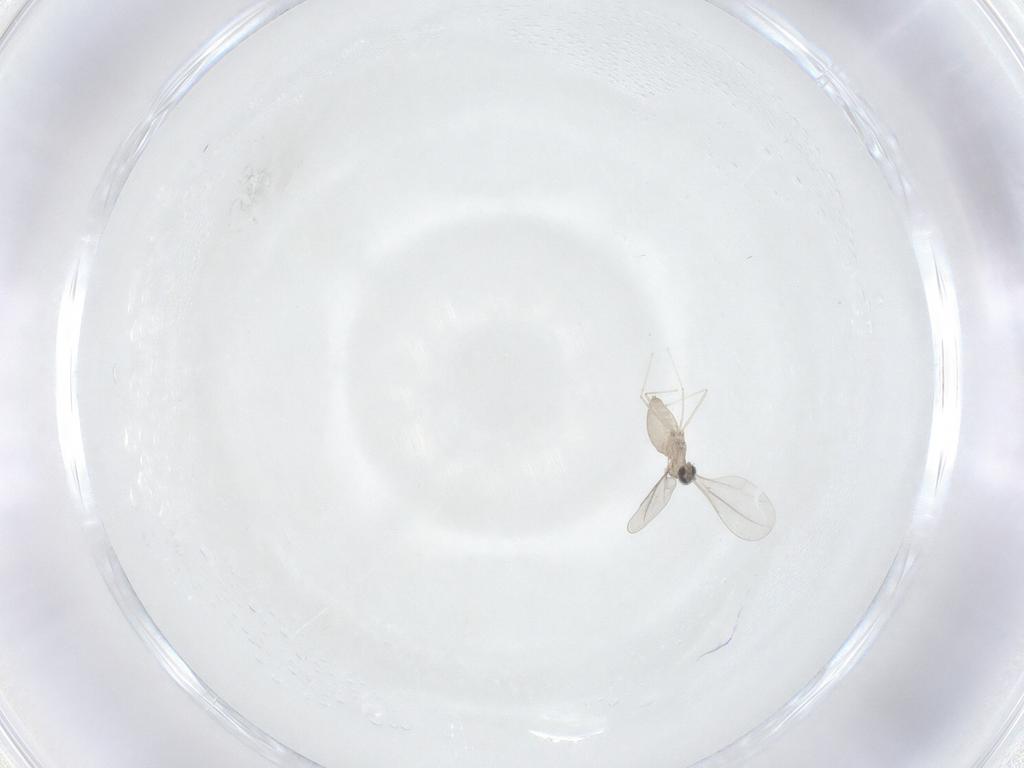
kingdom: Animalia
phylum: Arthropoda
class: Insecta
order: Diptera
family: Cecidomyiidae
